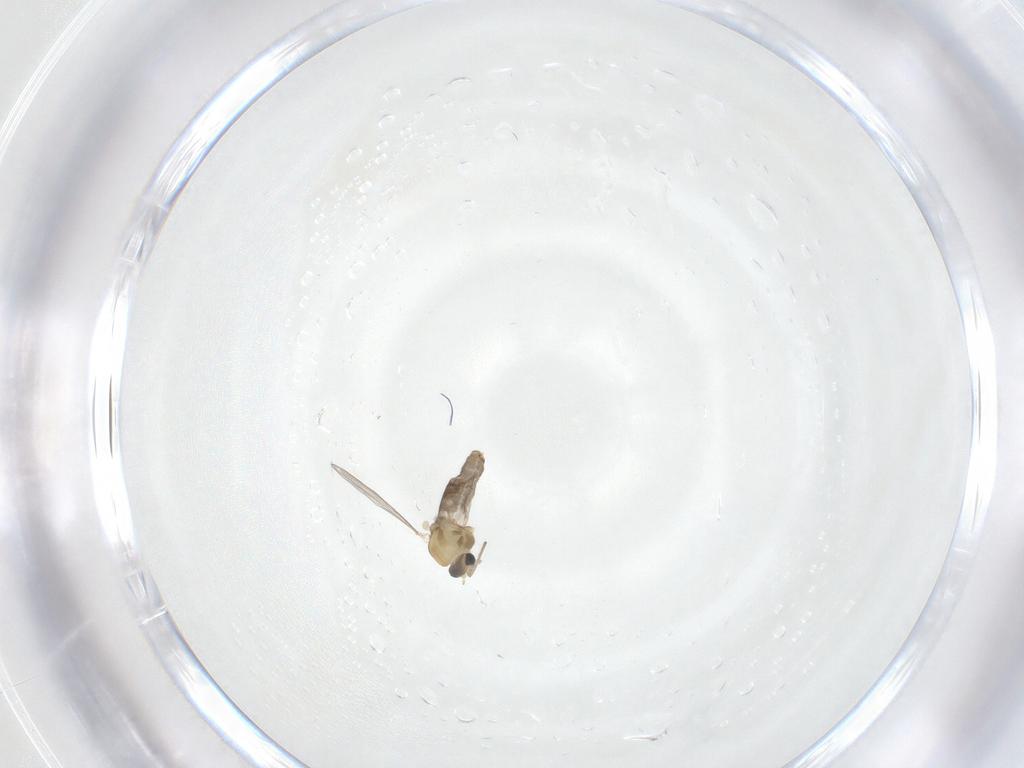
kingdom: Animalia
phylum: Arthropoda
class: Insecta
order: Diptera
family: Chironomidae
